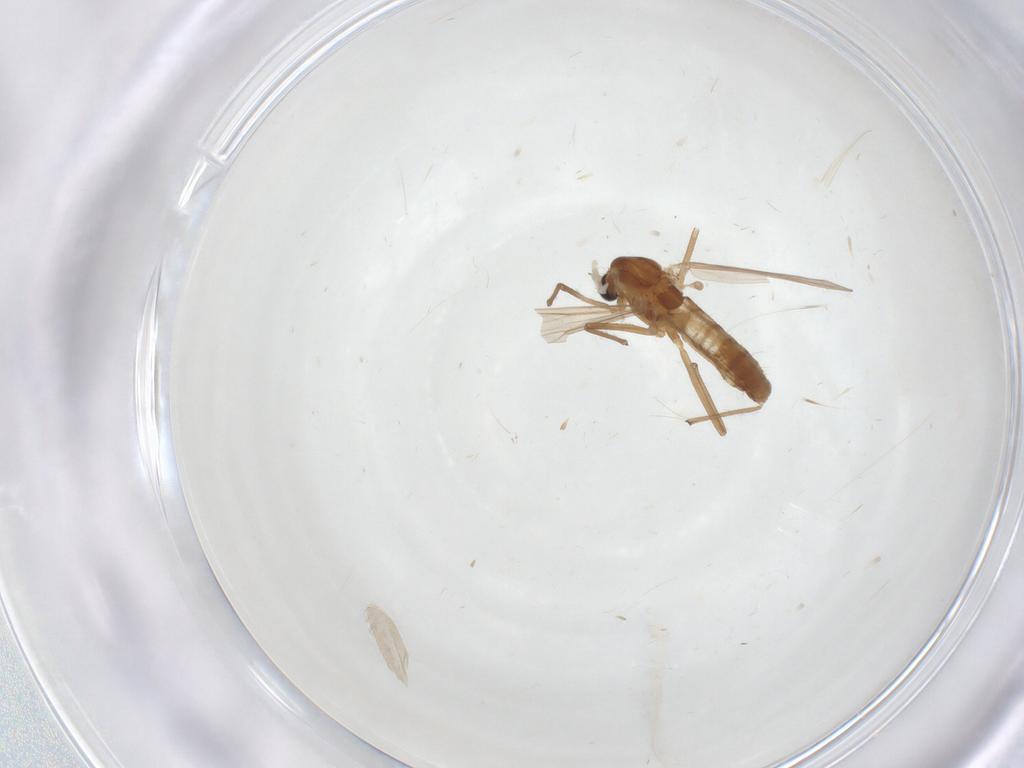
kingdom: Animalia
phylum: Arthropoda
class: Insecta
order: Diptera
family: Chironomidae
